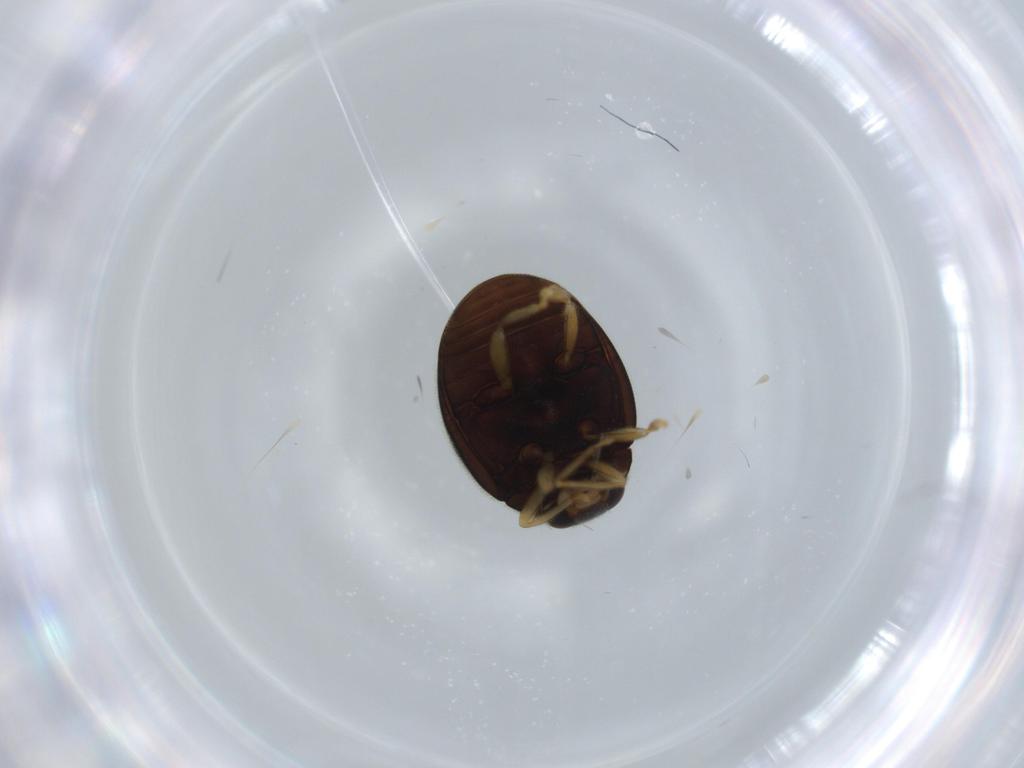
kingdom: Animalia
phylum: Arthropoda
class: Insecta
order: Coleoptera
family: Coccinellidae
